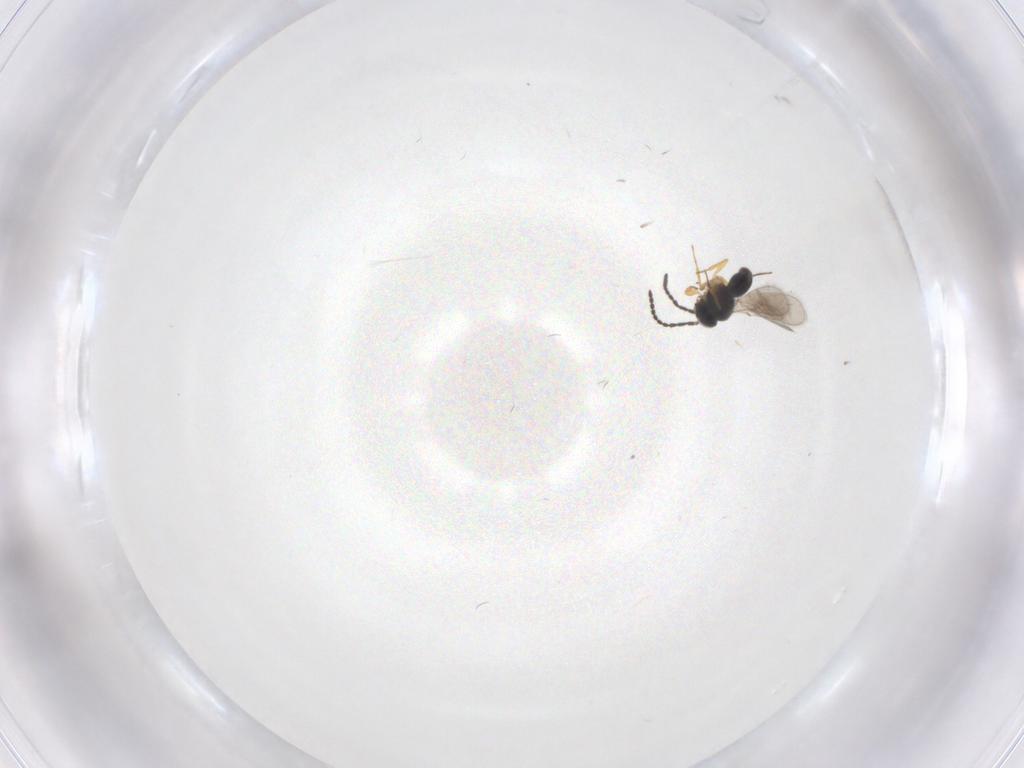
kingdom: Animalia
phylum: Arthropoda
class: Insecta
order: Hymenoptera
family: Scelionidae
